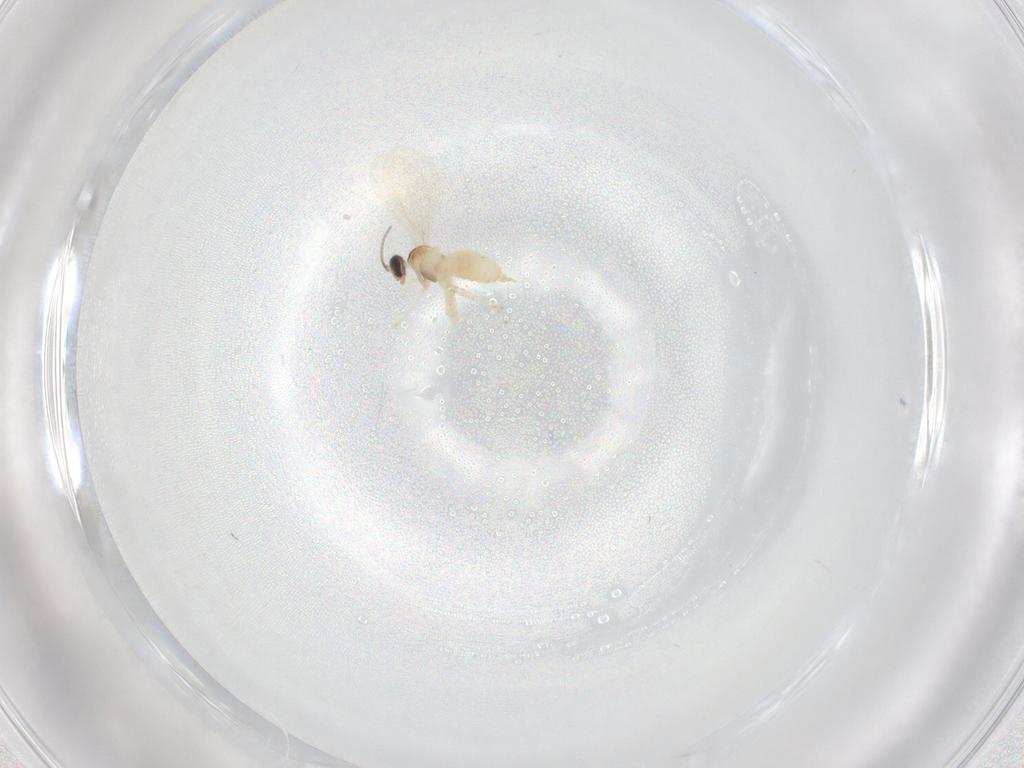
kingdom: Animalia
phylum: Arthropoda
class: Insecta
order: Diptera
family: Cecidomyiidae
